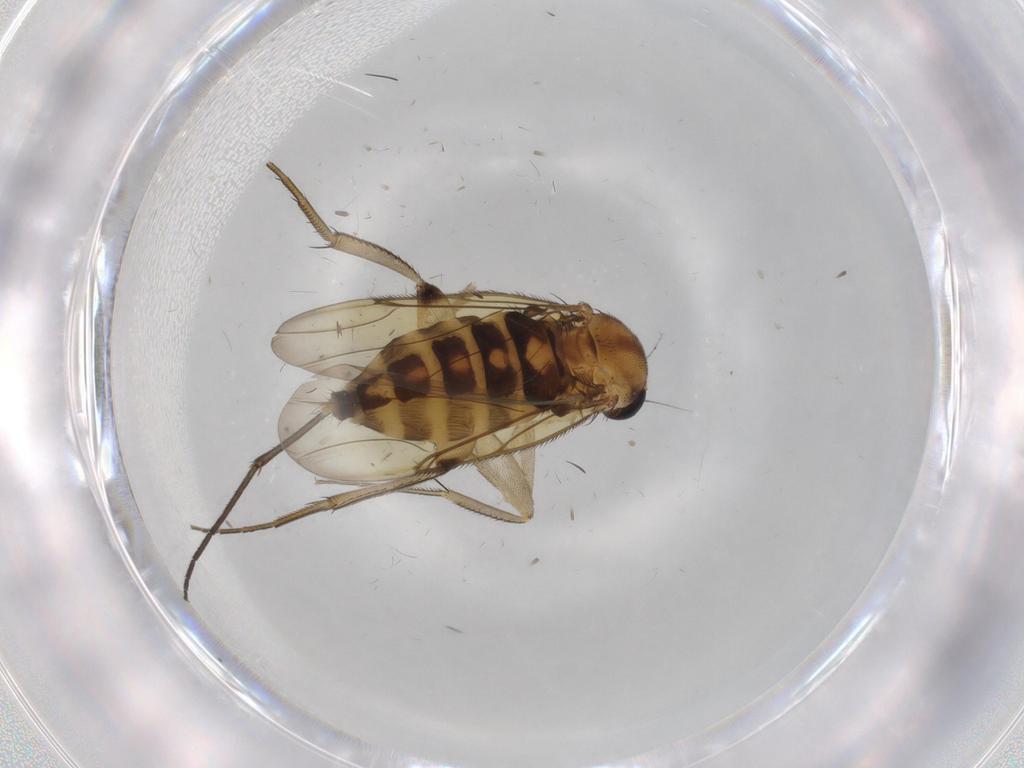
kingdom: Animalia
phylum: Arthropoda
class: Insecta
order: Diptera
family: Phoridae
